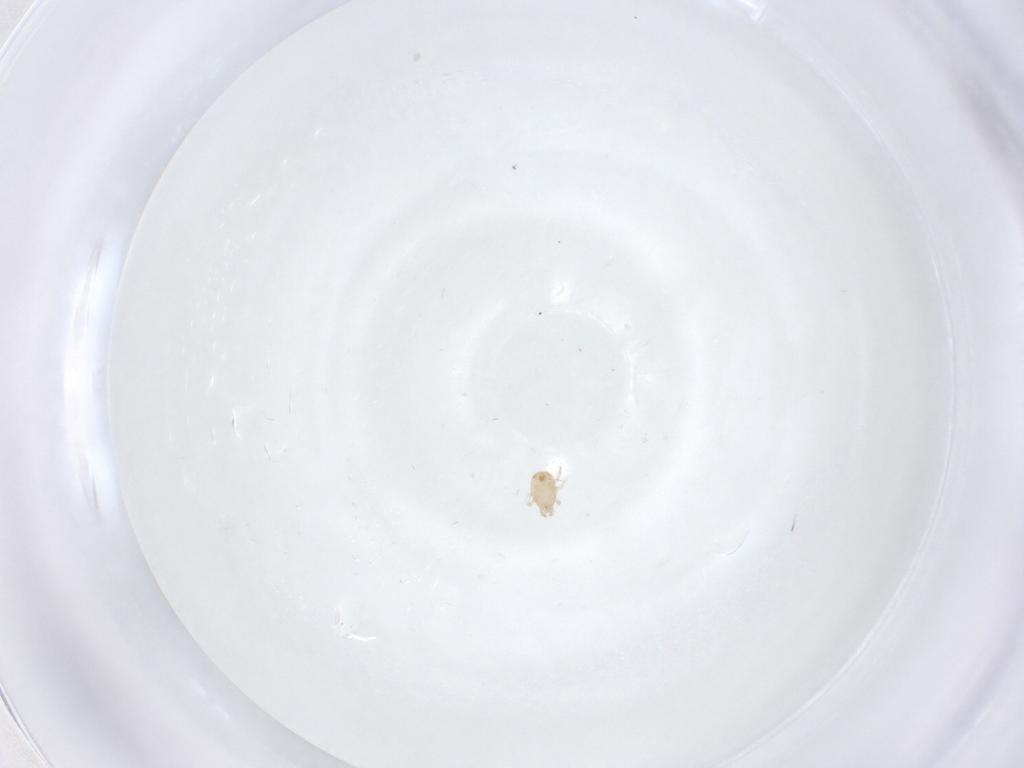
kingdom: Animalia
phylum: Arthropoda
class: Arachnida
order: Mesostigmata
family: Ascidae
